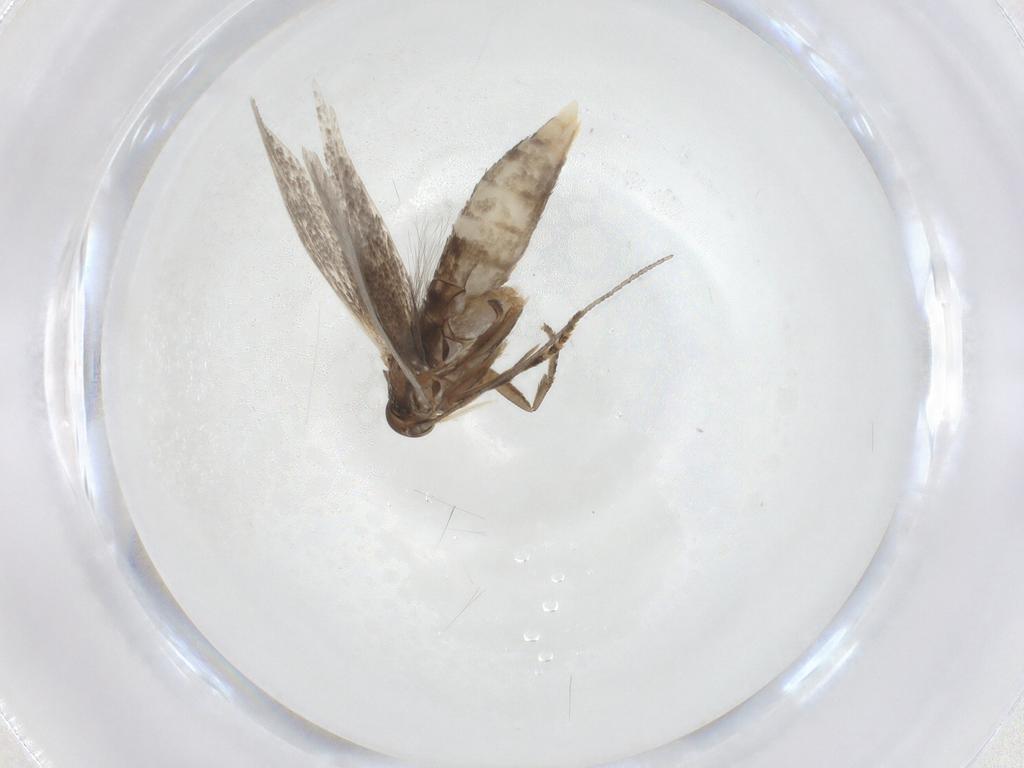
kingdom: Animalia
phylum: Arthropoda
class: Insecta
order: Lepidoptera
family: Elachistidae
